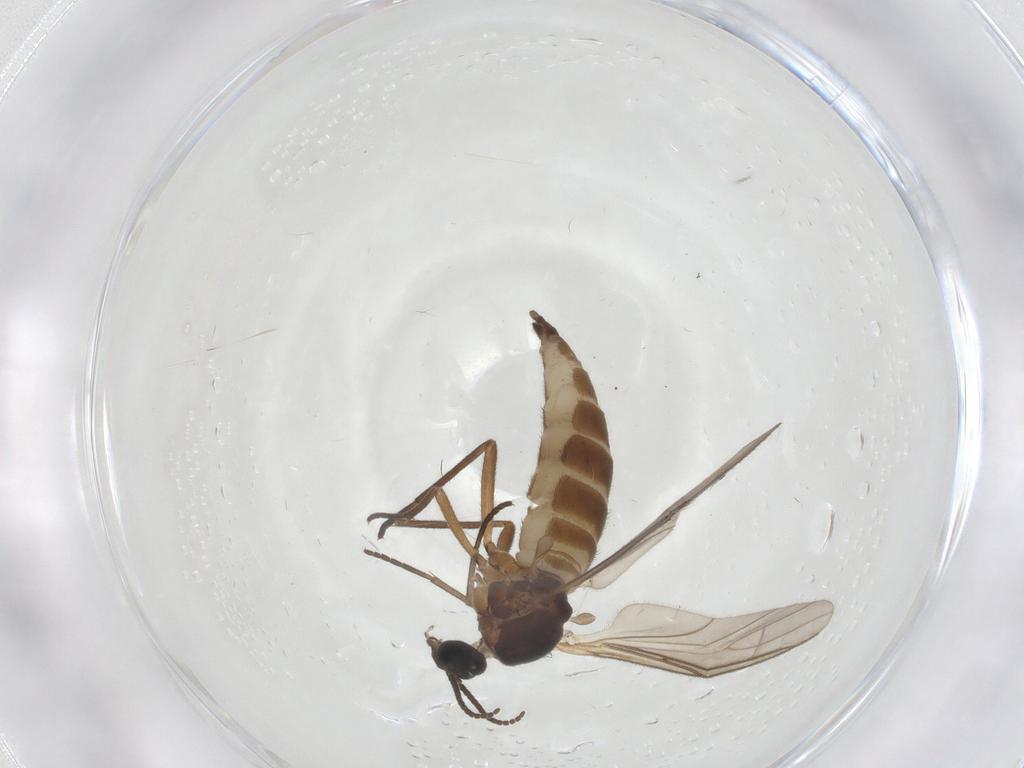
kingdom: Animalia
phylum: Arthropoda
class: Insecta
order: Diptera
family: Sciaridae
